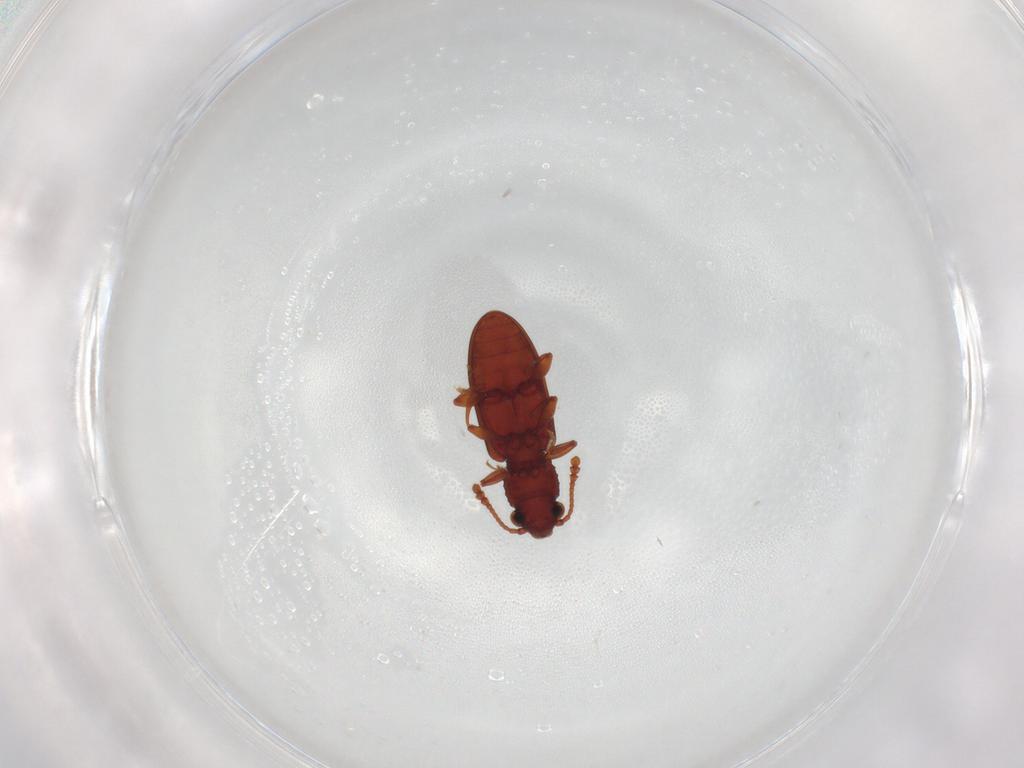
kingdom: Animalia
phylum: Arthropoda
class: Insecta
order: Coleoptera
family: Silvanidae
